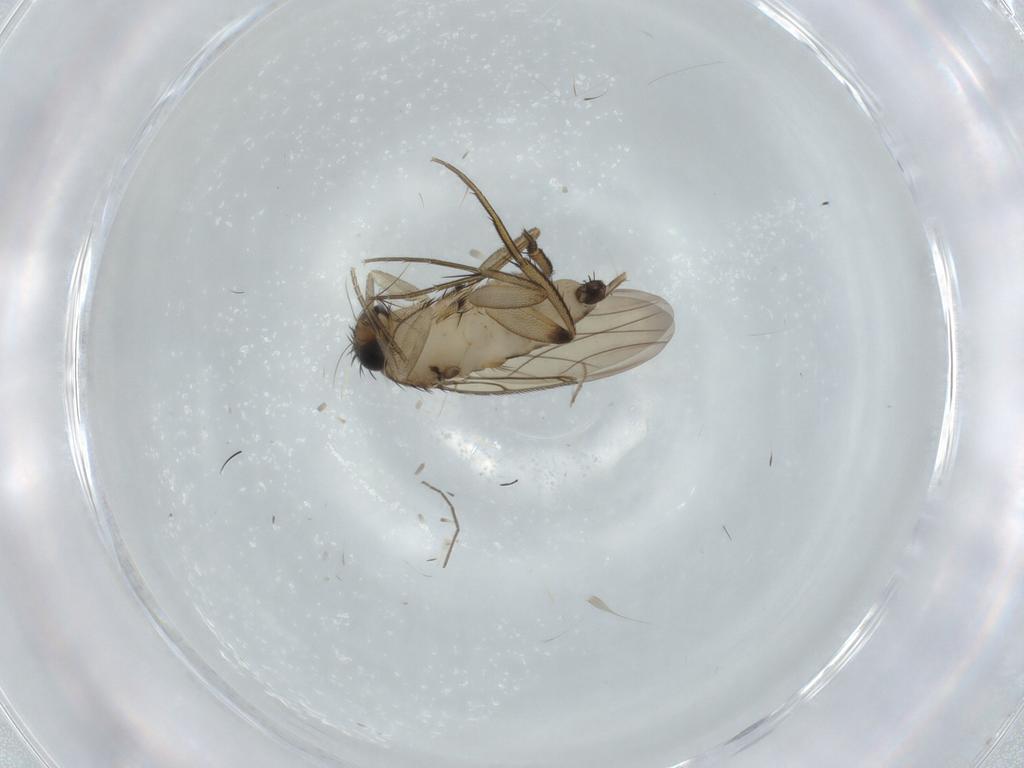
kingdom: Animalia
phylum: Arthropoda
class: Insecta
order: Diptera
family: Phoridae
